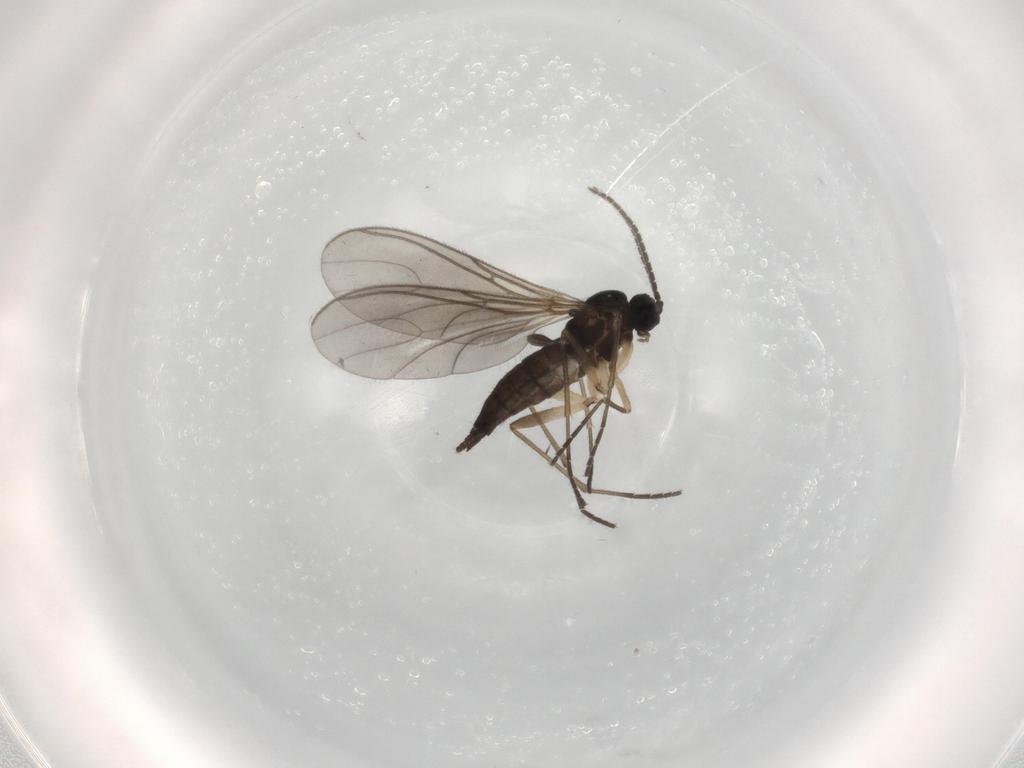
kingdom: Animalia
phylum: Arthropoda
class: Insecta
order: Diptera
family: Sciaridae
